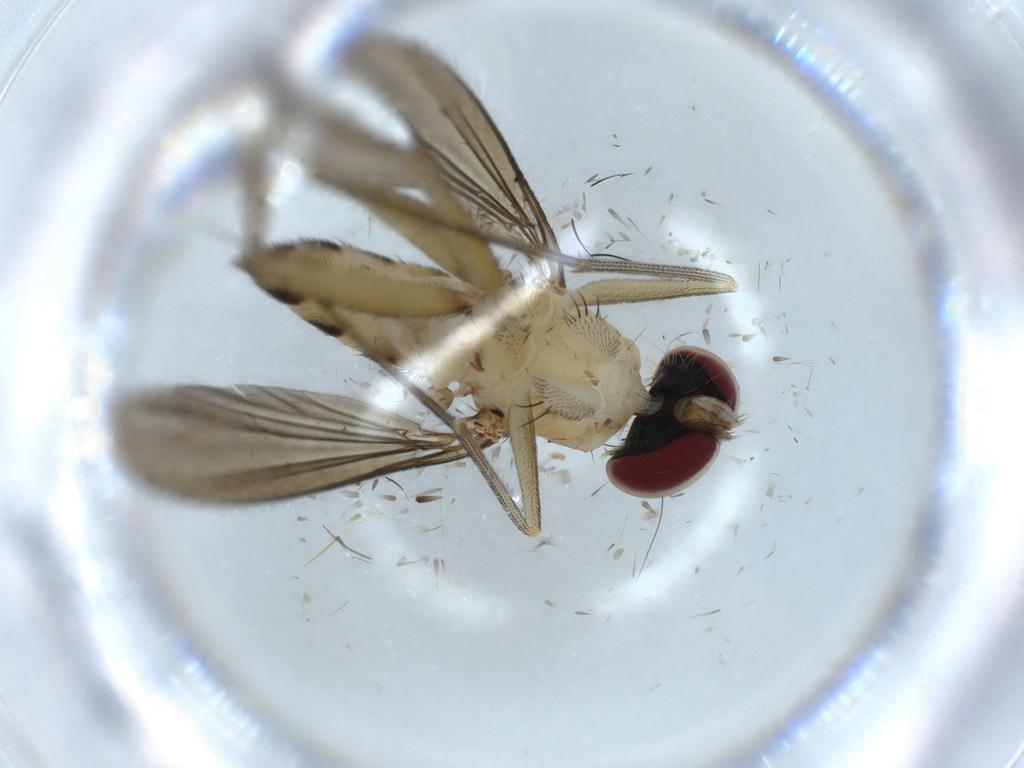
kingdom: Animalia
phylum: Arthropoda
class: Insecta
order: Diptera
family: Dolichopodidae
